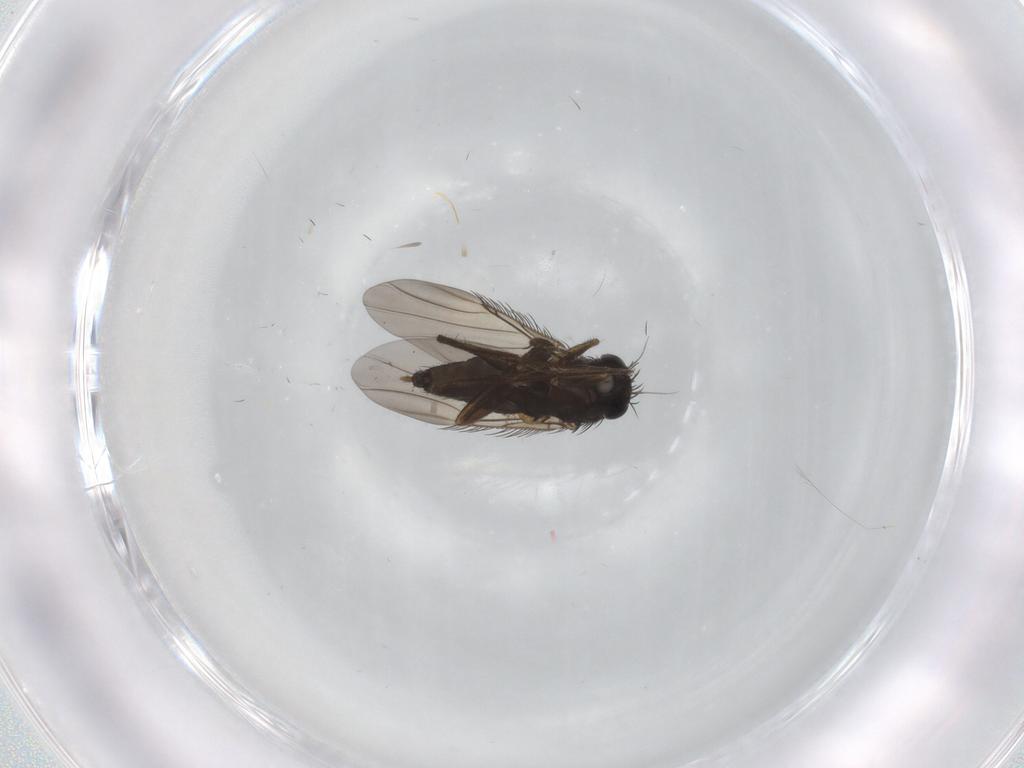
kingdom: Animalia
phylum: Arthropoda
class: Insecta
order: Diptera
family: Phoridae
